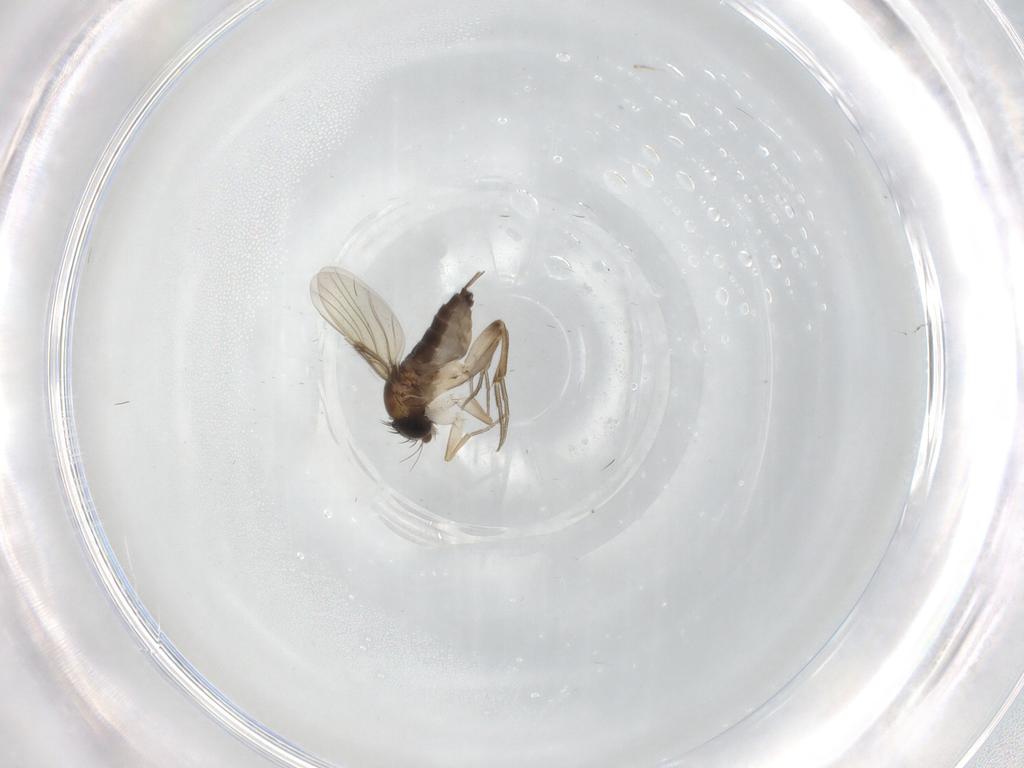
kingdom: Animalia
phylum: Arthropoda
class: Insecta
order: Diptera
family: Phoridae
